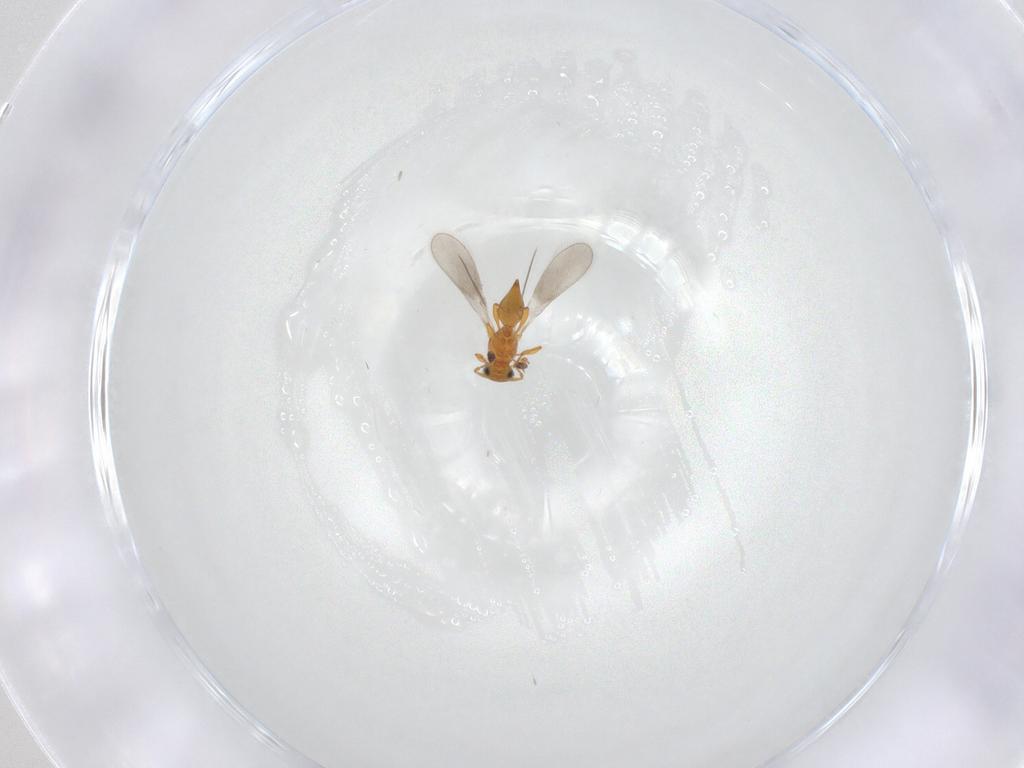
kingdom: Animalia
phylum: Arthropoda
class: Insecta
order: Hymenoptera
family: Platygastridae
